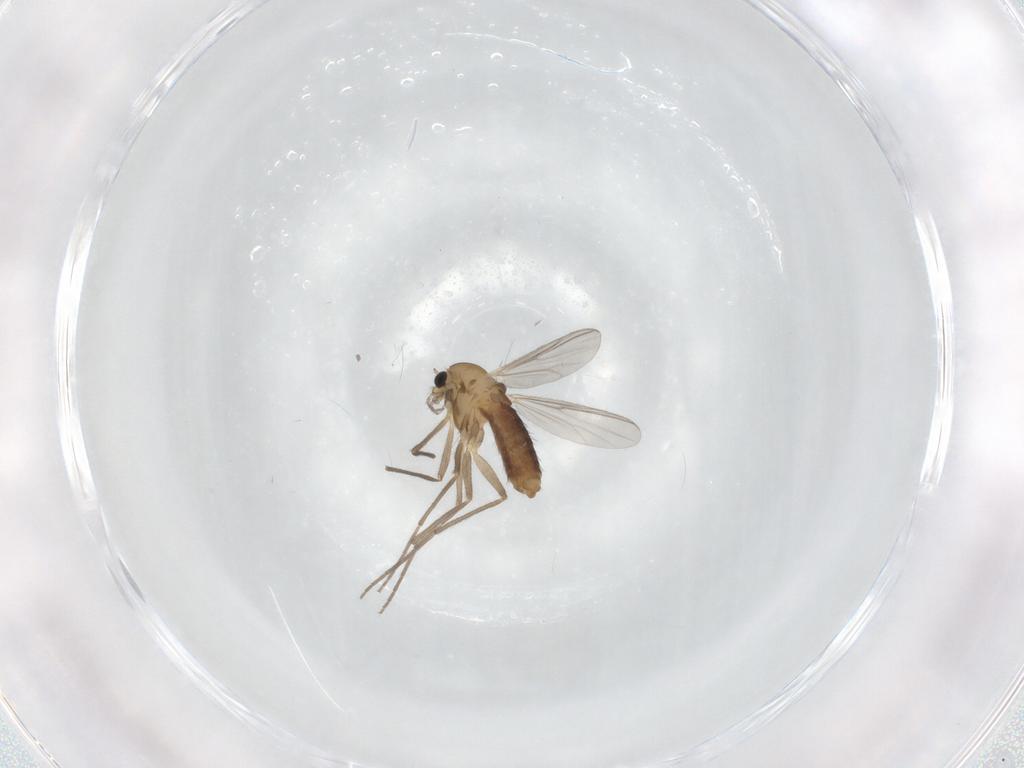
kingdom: Animalia
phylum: Arthropoda
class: Insecta
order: Diptera
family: Chironomidae
